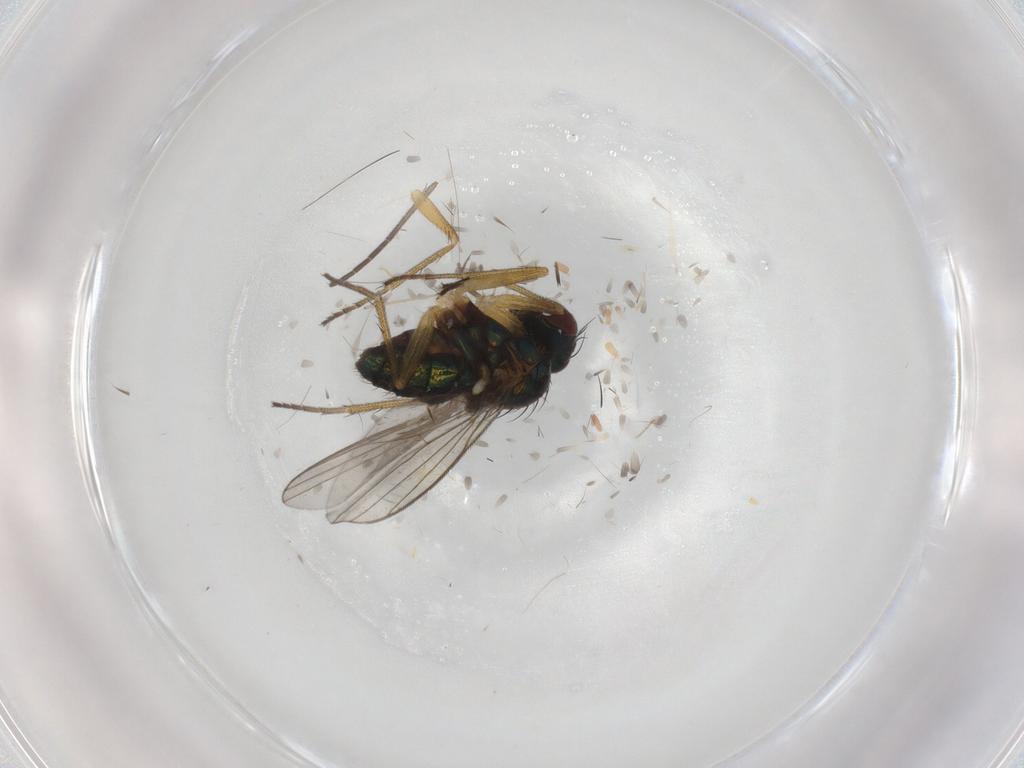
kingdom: Animalia
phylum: Arthropoda
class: Insecta
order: Diptera
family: Sciaridae
